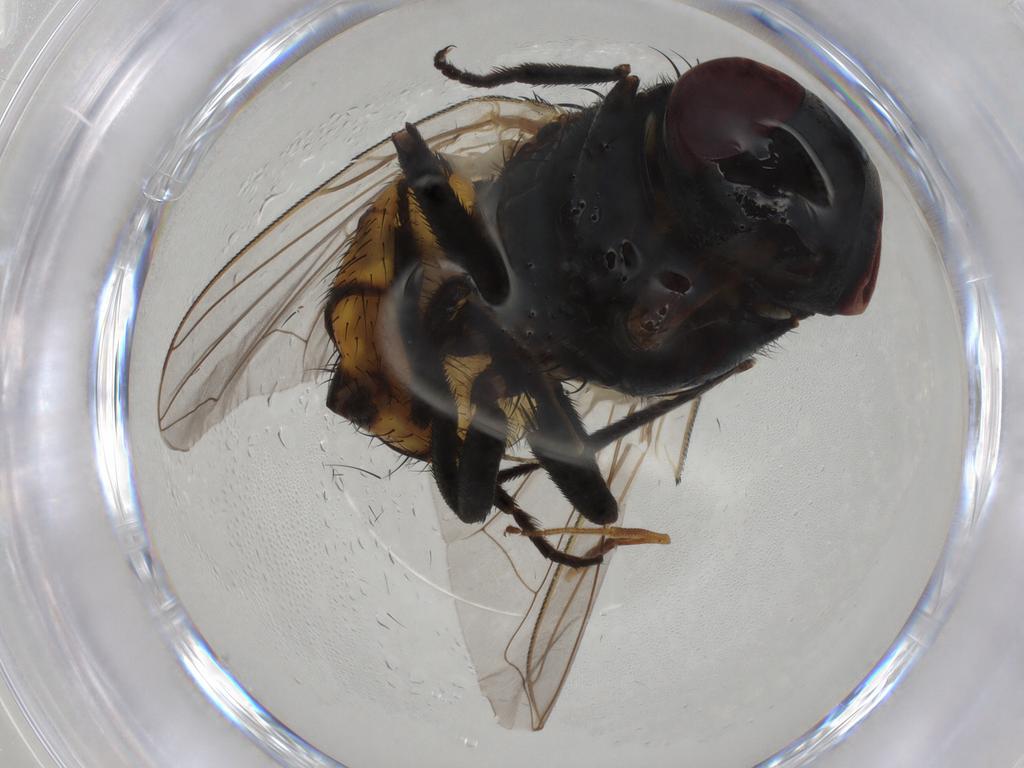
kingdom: Animalia
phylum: Arthropoda
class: Insecta
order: Diptera
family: Muscidae
